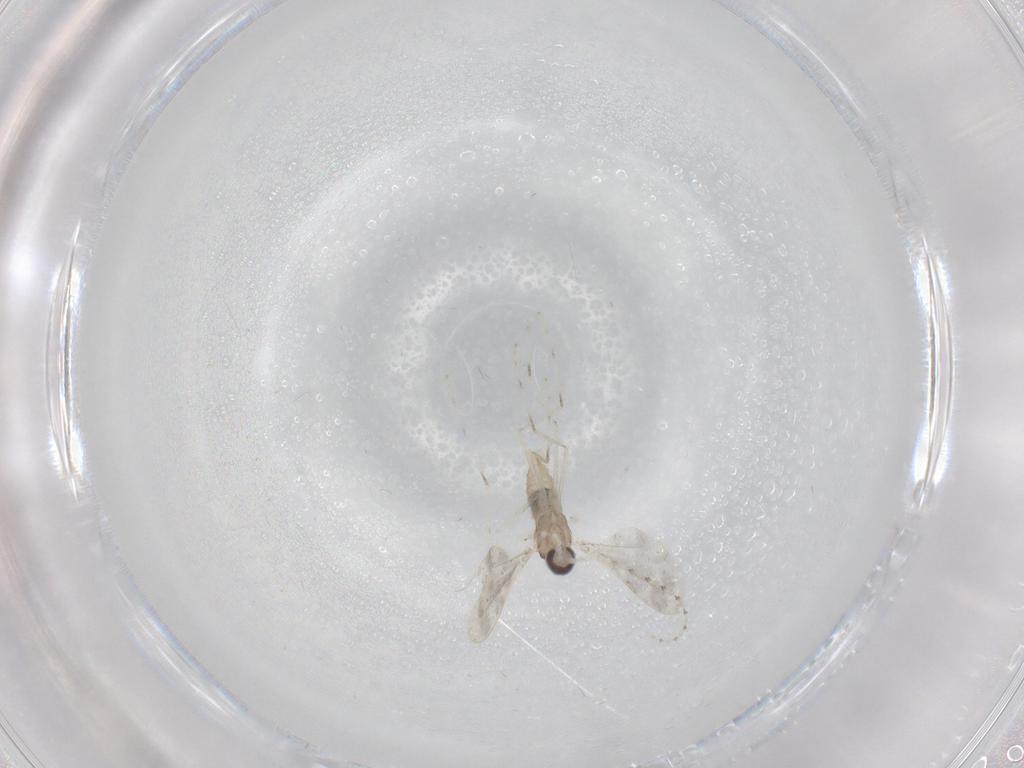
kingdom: Animalia
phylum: Arthropoda
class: Insecta
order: Diptera
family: Cecidomyiidae
